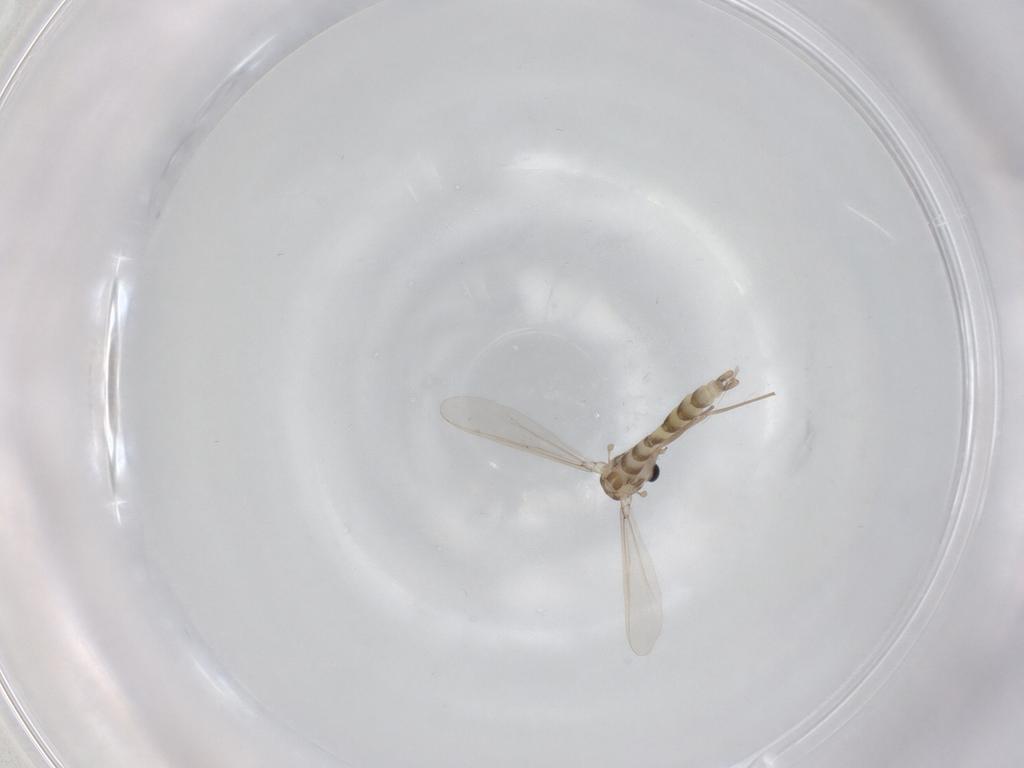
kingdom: Animalia
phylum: Arthropoda
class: Insecta
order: Diptera
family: Chironomidae
